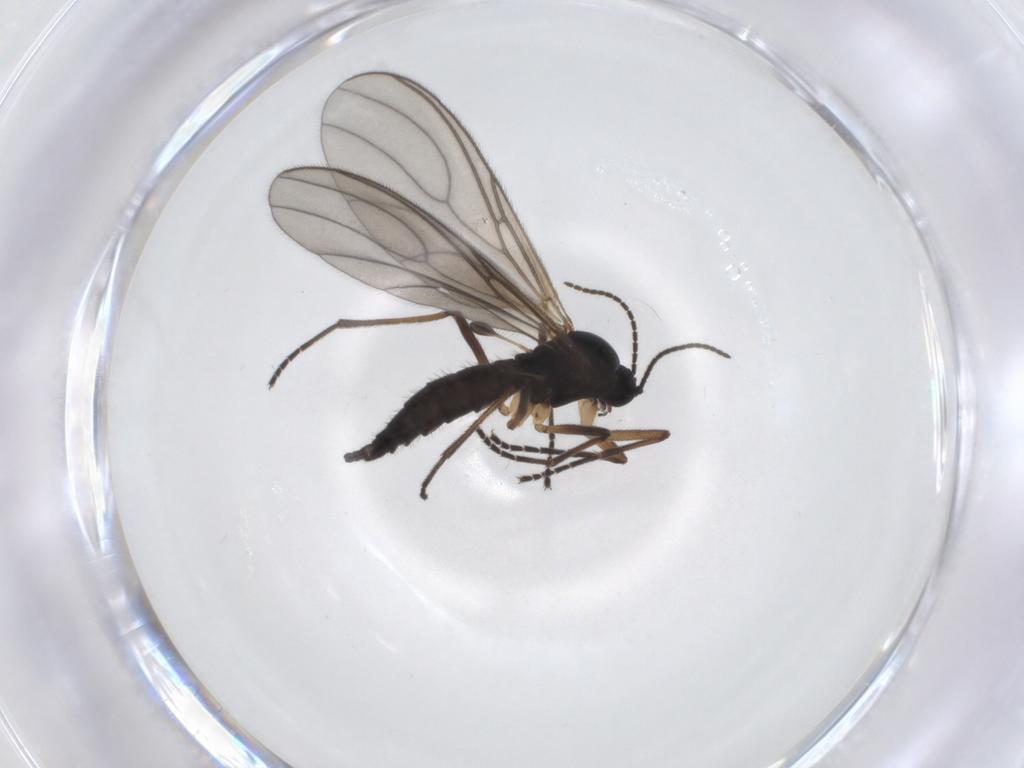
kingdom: Animalia
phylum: Arthropoda
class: Insecta
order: Diptera
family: Sciaridae
